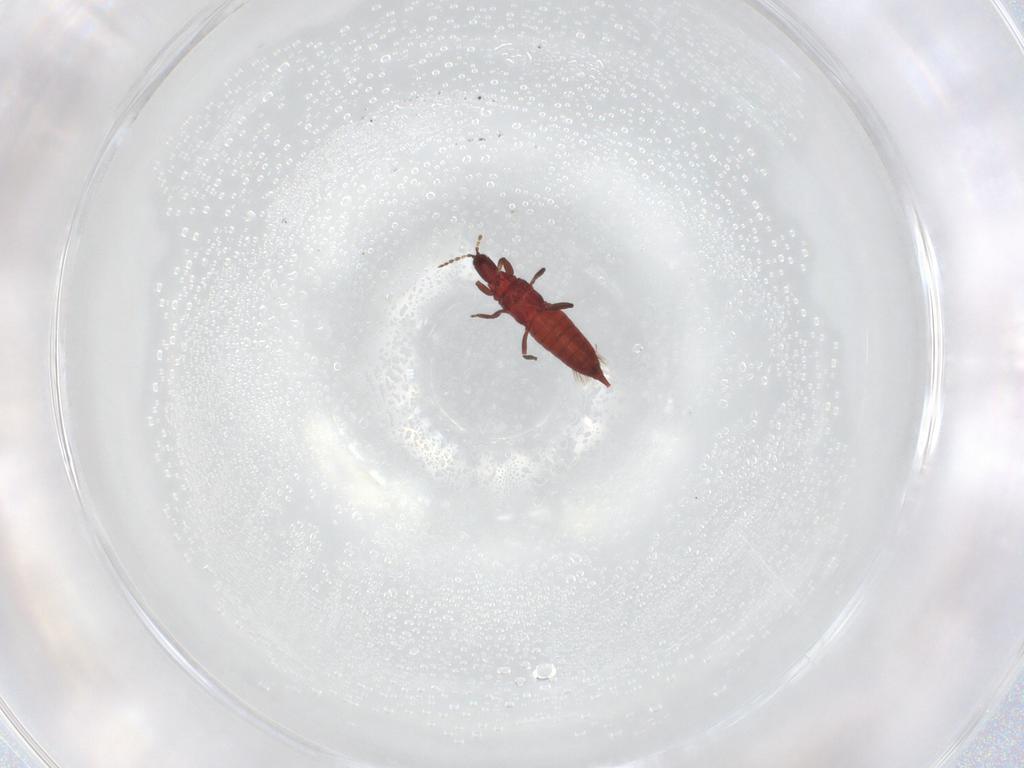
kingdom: Animalia
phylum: Arthropoda
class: Insecta
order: Thysanoptera
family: Phlaeothripidae
